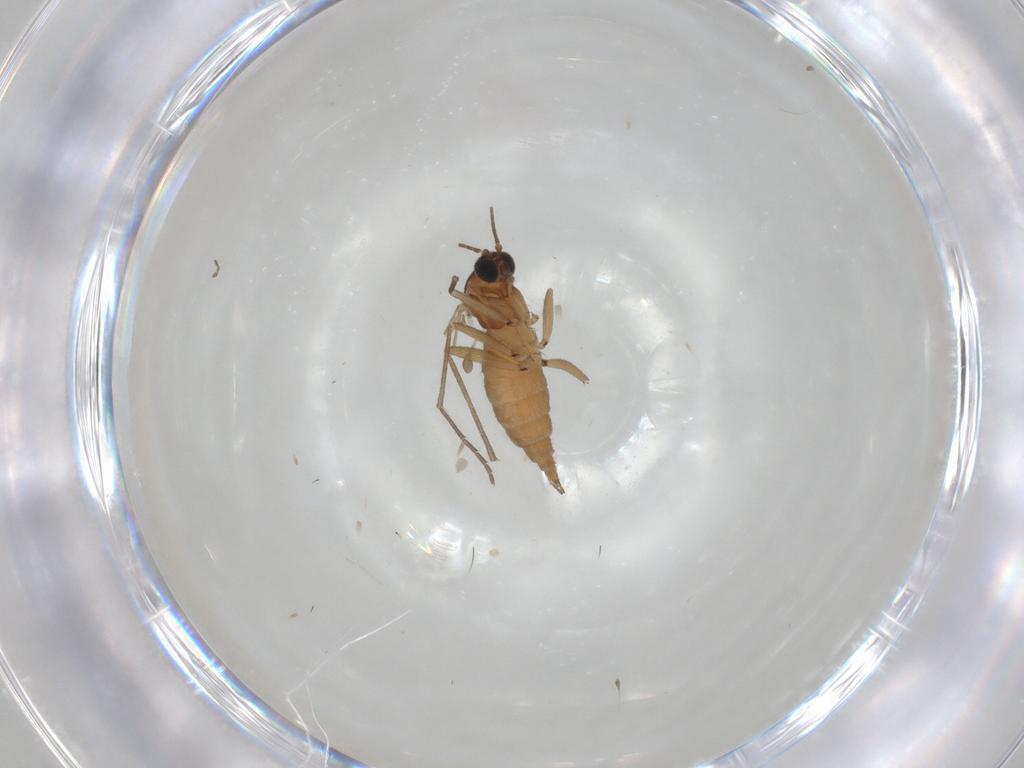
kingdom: Animalia
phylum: Arthropoda
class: Insecta
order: Diptera
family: Sciaridae
